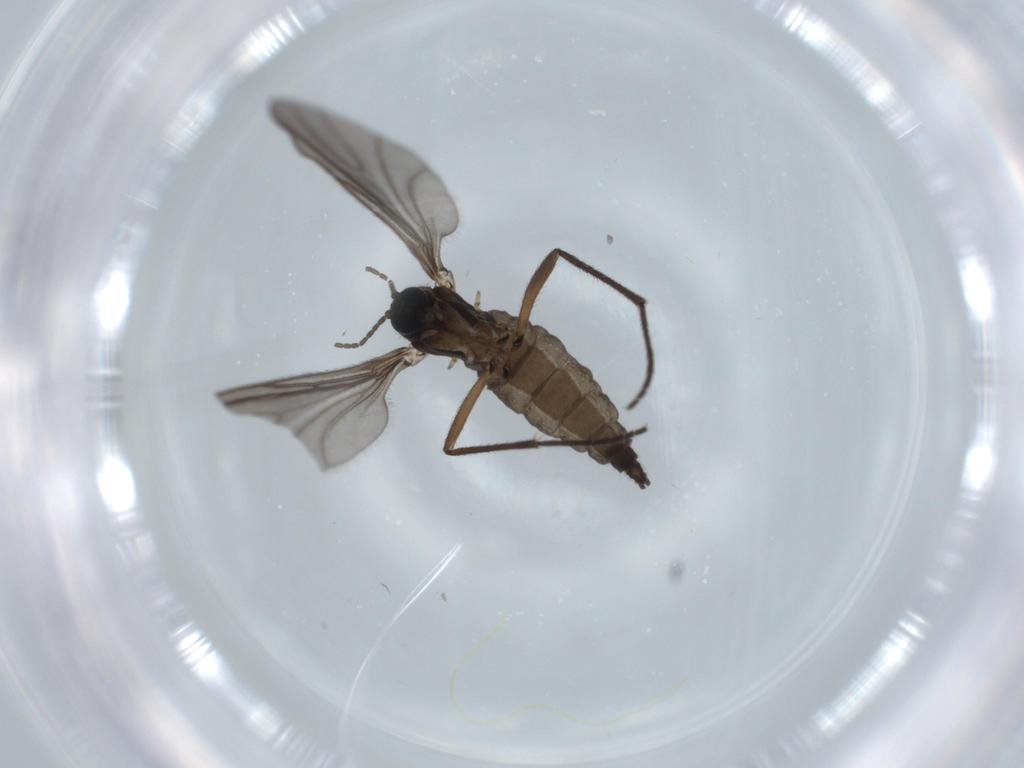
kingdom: Animalia
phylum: Arthropoda
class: Insecta
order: Diptera
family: Sciaridae
